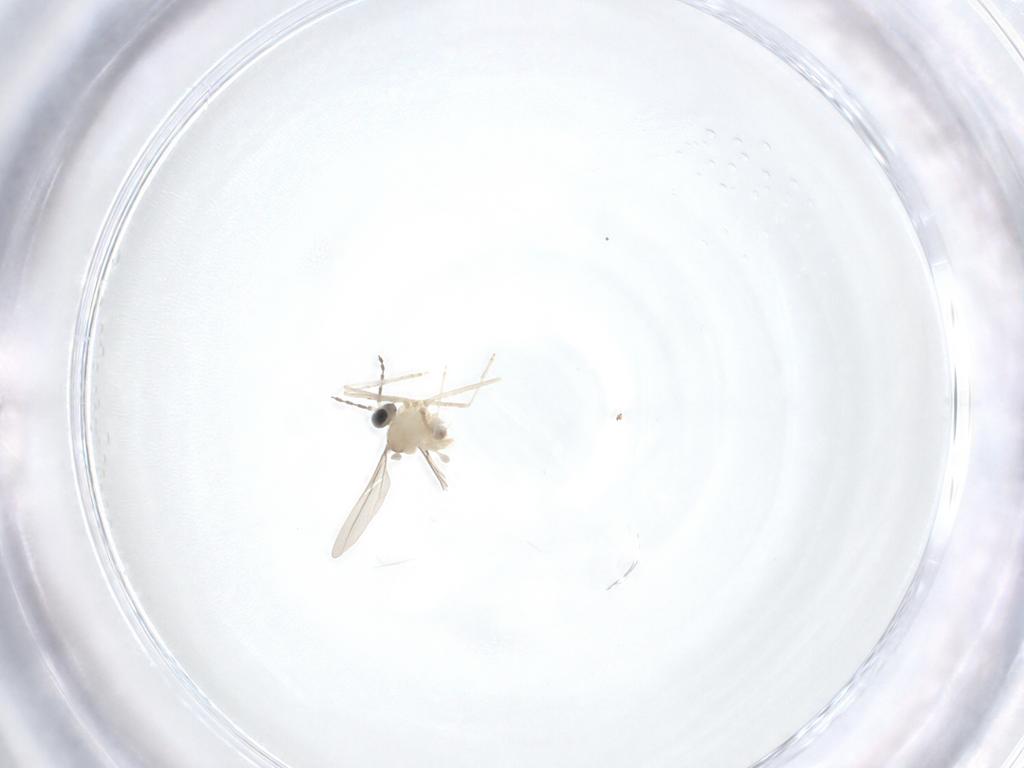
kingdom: Animalia
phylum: Arthropoda
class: Insecta
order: Diptera
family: Cecidomyiidae
